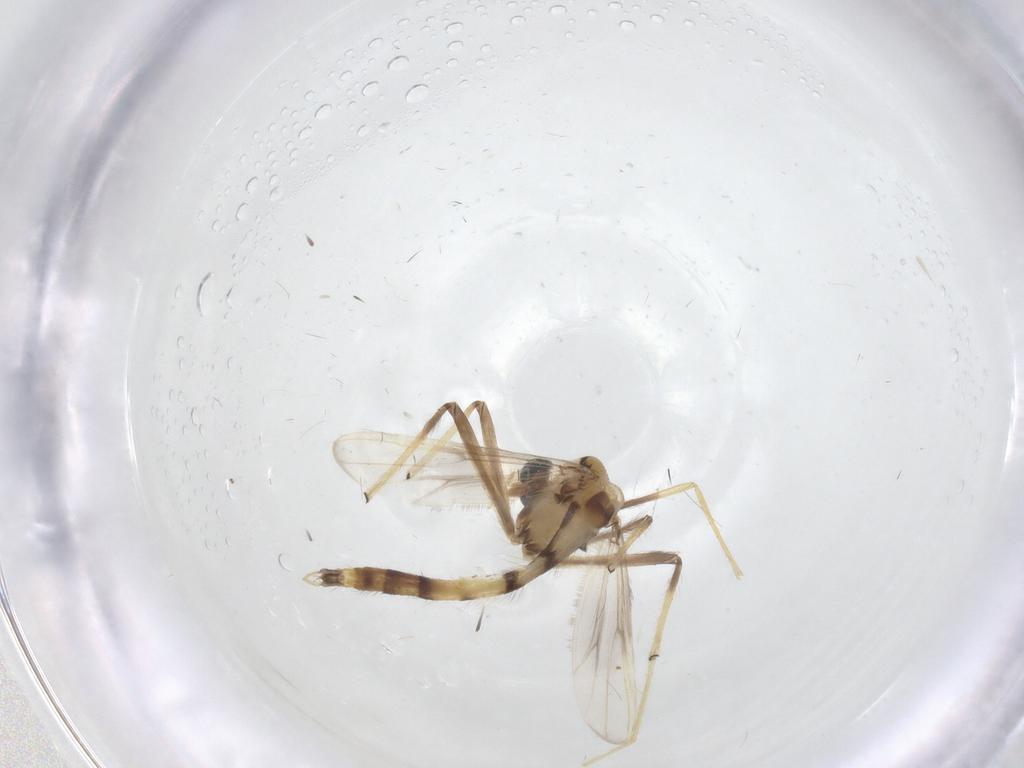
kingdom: Animalia
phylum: Arthropoda
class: Insecta
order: Diptera
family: Chironomidae
